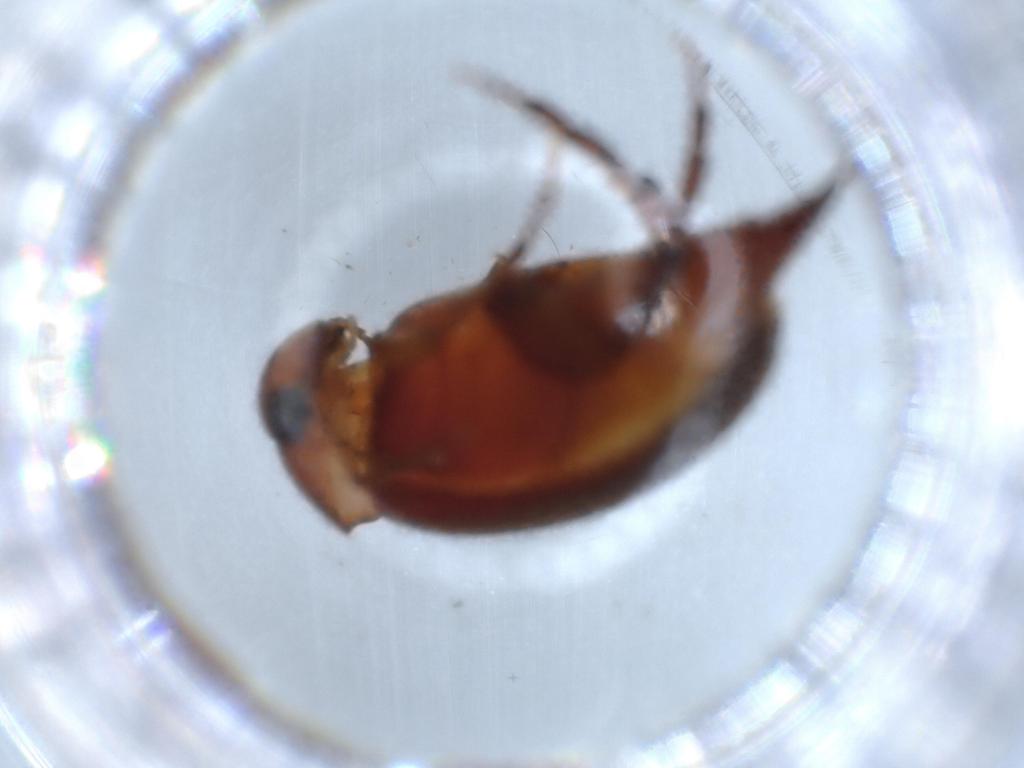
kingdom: Animalia
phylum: Arthropoda
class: Insecta
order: Coleoptera
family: Mordellidae
